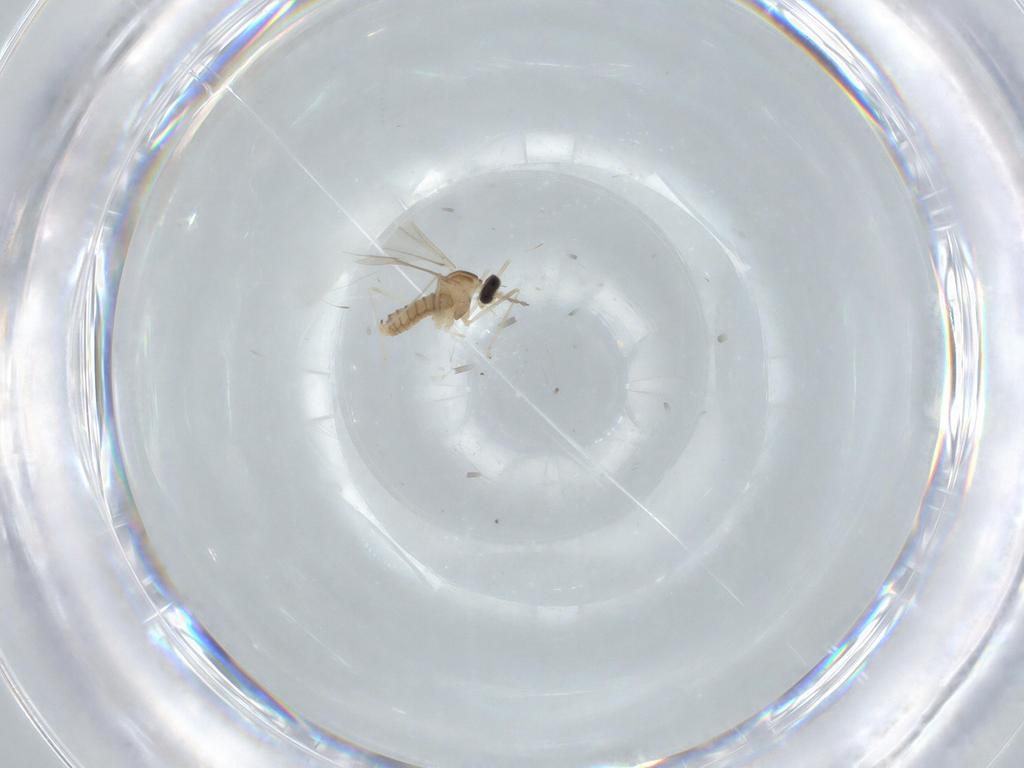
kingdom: Animalia
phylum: Arthropoda
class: Insecta
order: Diptera
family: Cecidomyiidae
